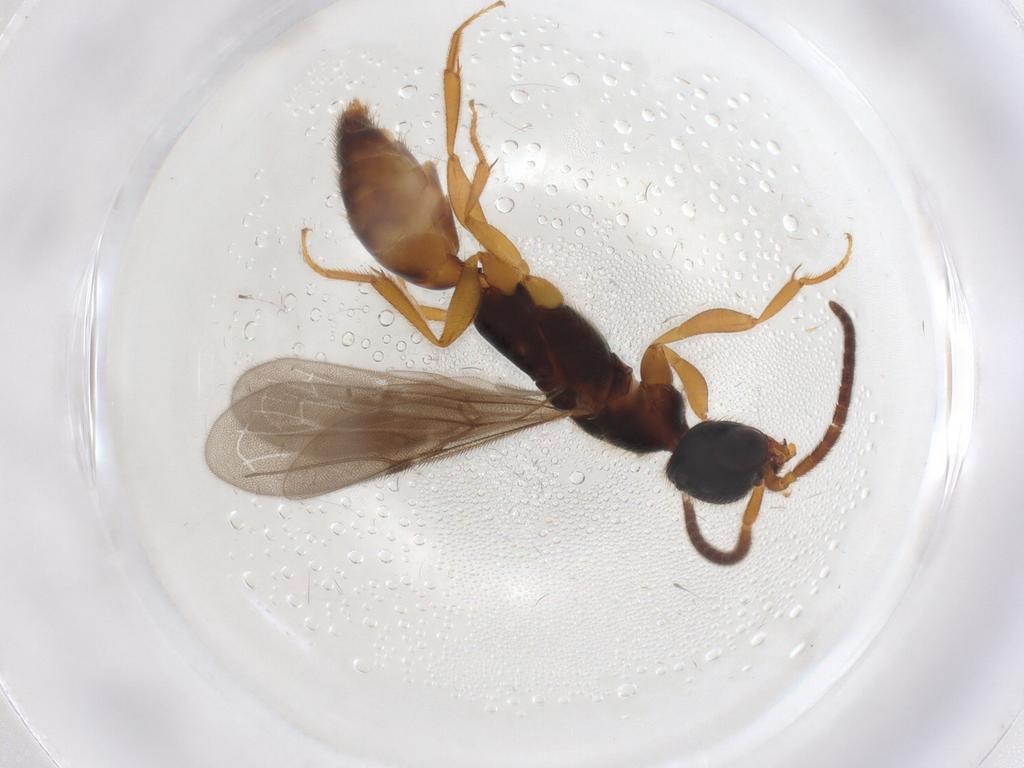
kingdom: Animalia
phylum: Arthropoda
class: Insecta
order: Hymenoptera
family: Bethylidae
